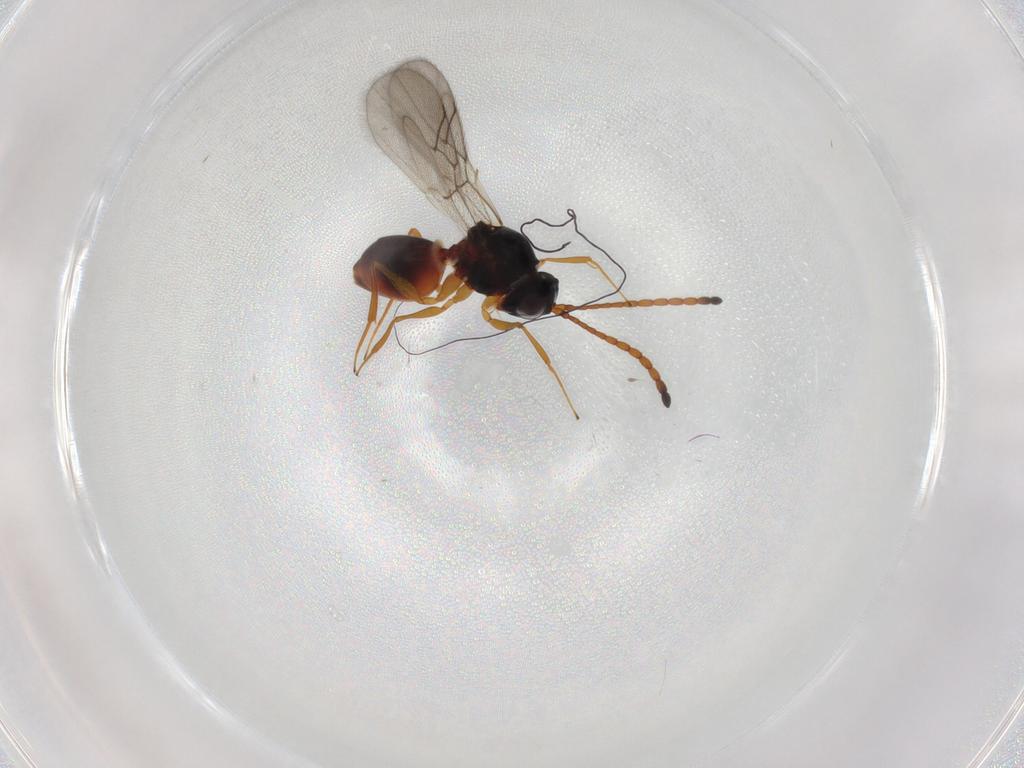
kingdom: Animalia
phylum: Arthropoda
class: Insecta
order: Hymenoptera
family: Figitidae
